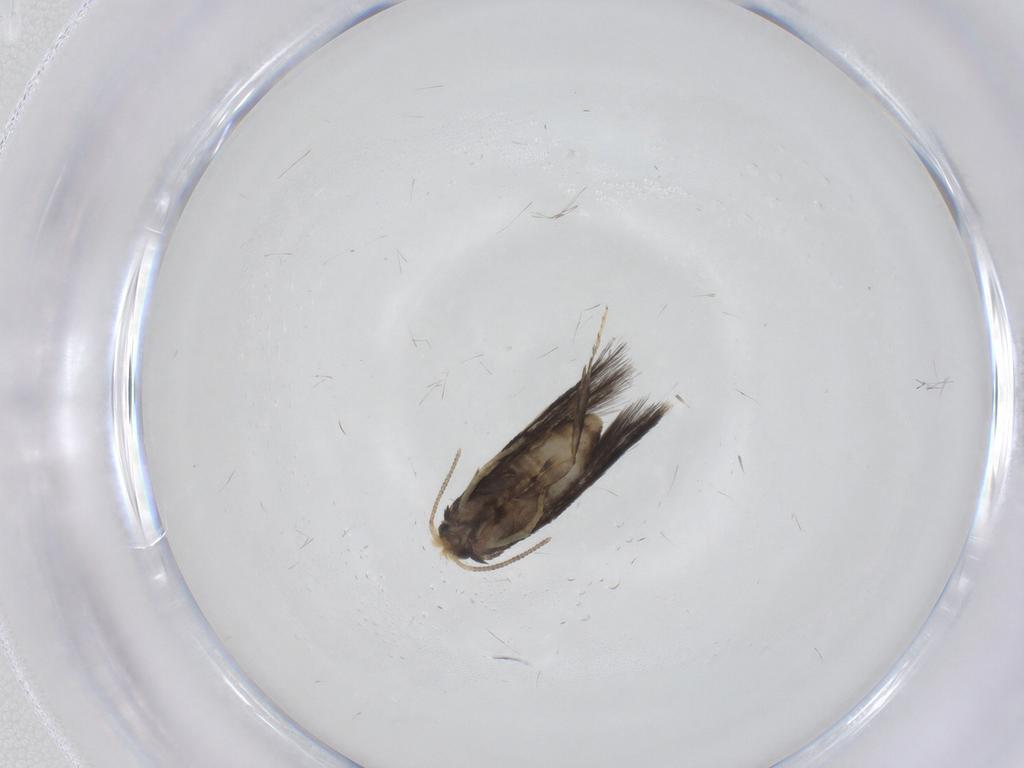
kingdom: Animalia
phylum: Arthropoda
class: Insecta
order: Lepidoptera
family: Nepticulidae
